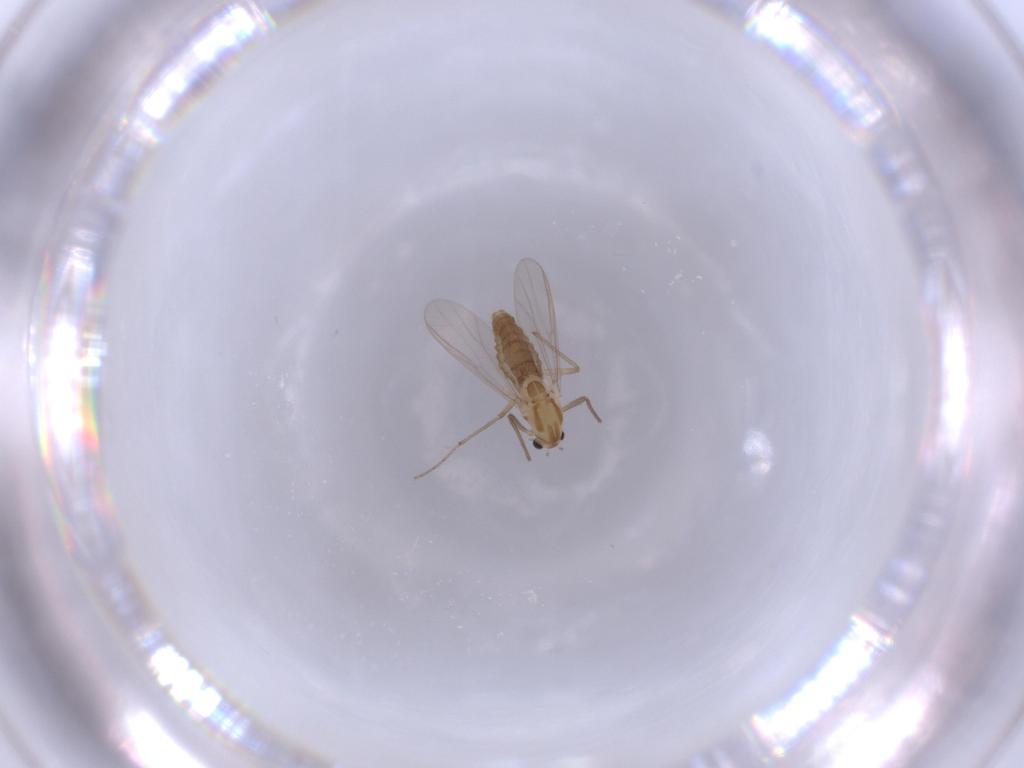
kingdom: Animalia
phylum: Arthropoda
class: Insecta
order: Diptera
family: Chironomidae
